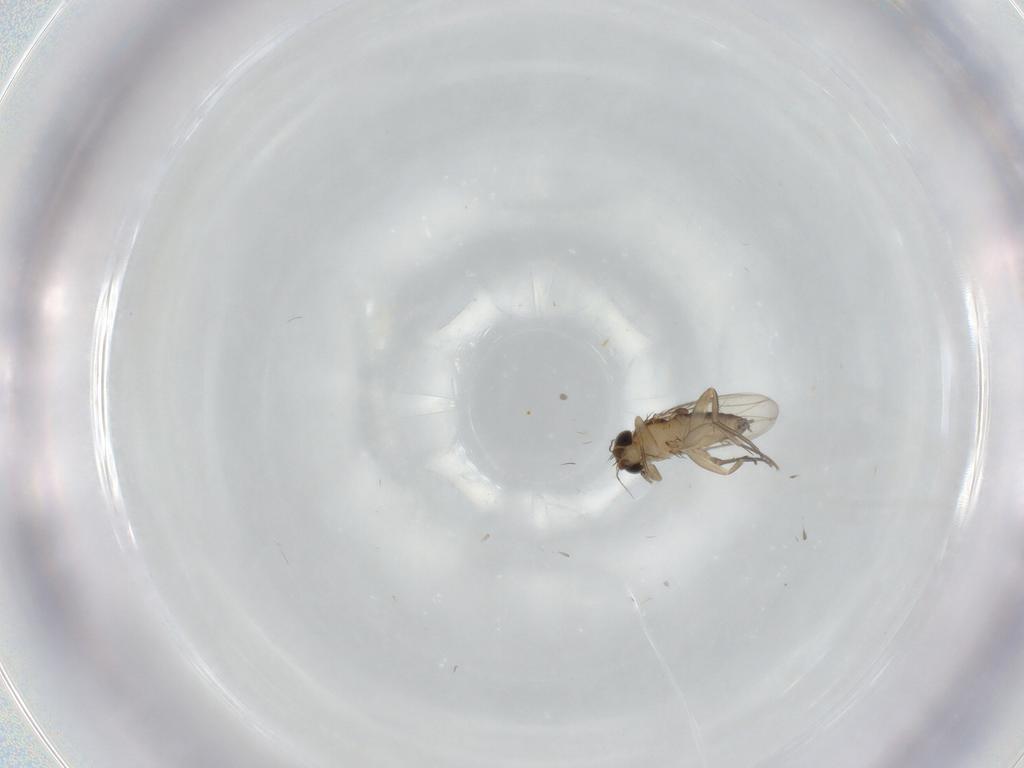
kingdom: Animalia
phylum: Arthropoda
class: Insecta
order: Diptera
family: Phoridae
